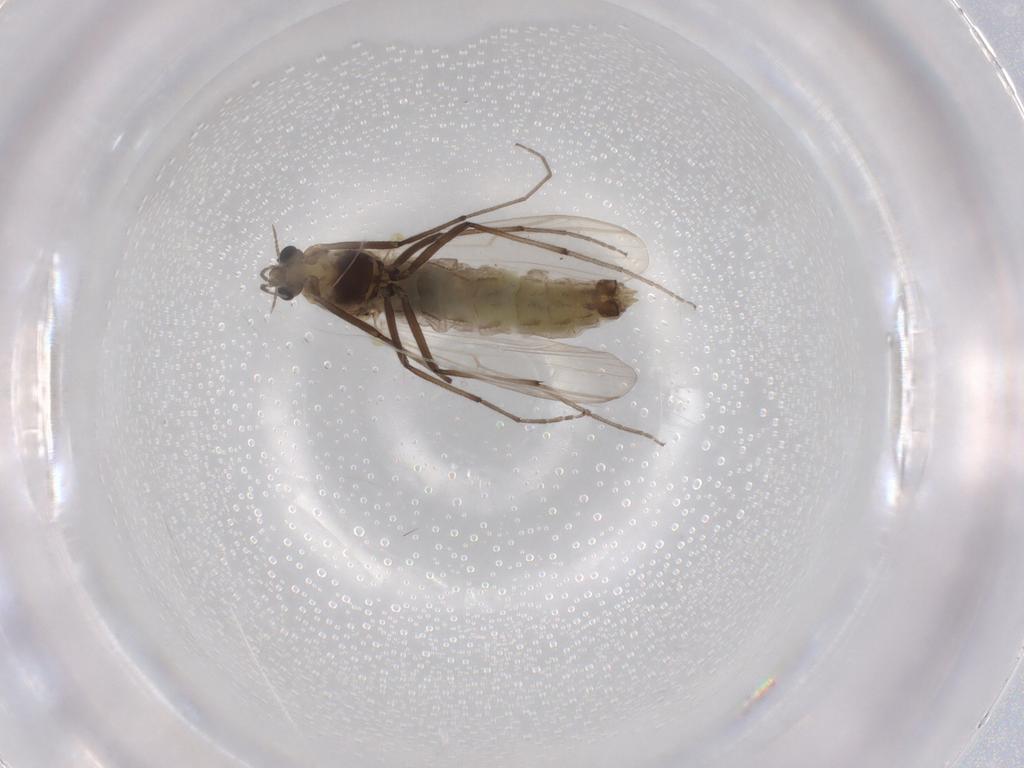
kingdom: Animalia
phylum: Arthropoda
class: Insecta
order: Diptera
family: Chironomidae
